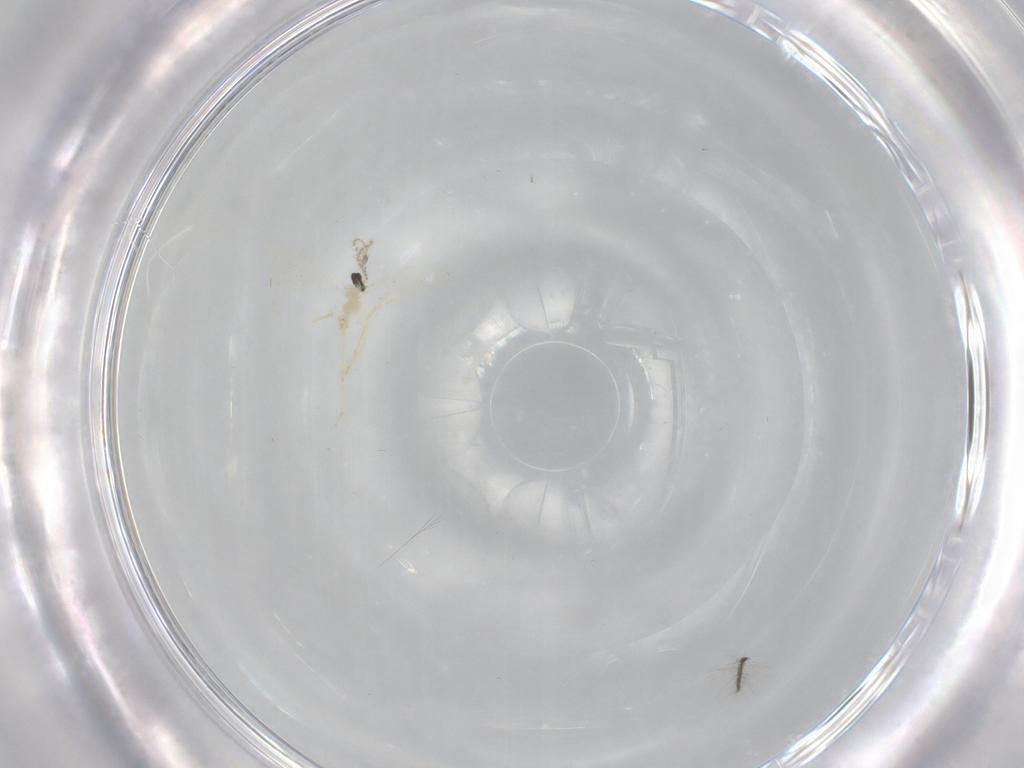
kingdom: Animalia
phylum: Arthropoda
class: Insecta
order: Diptera
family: Cecidomyiidae
